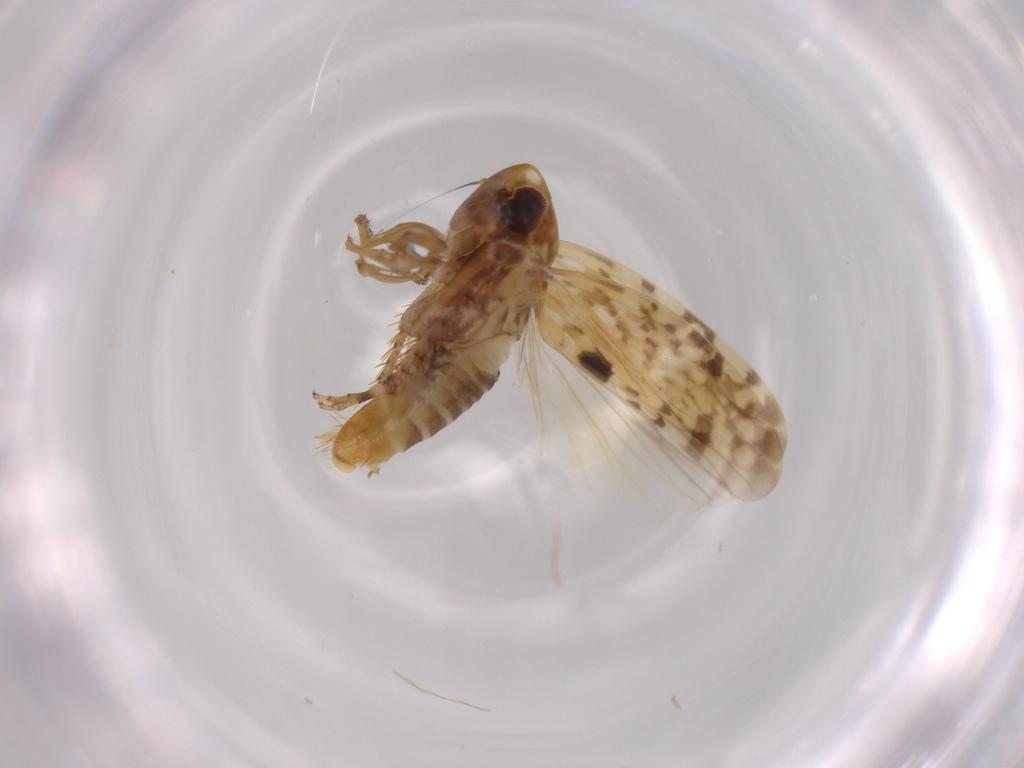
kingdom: Animalia
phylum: Arthropoda
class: Insecta
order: Hemiptera
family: Cicadellidae
